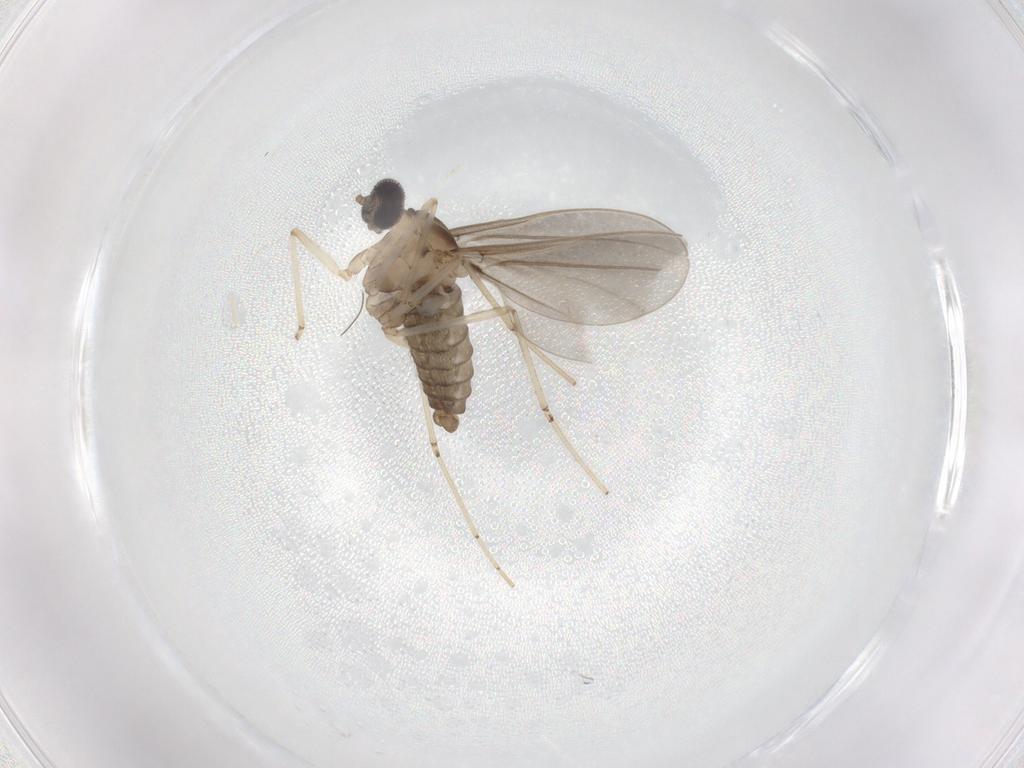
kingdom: Animalia
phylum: Arthropoda
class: Insecta
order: Diptera
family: Cecidomyiidae
